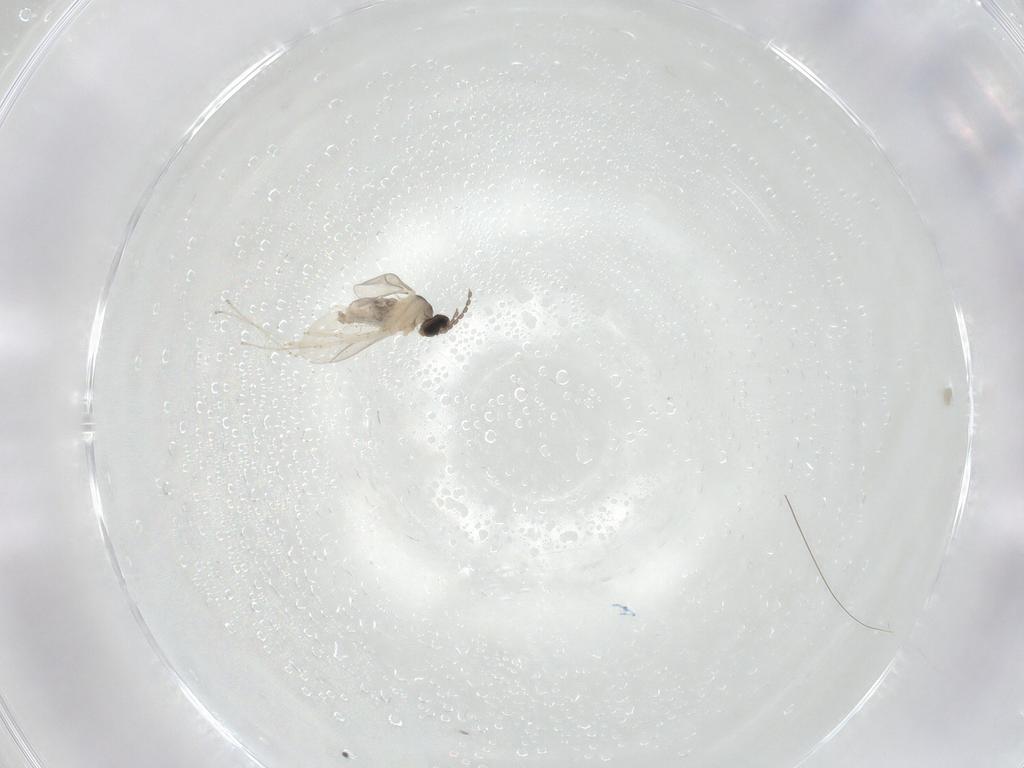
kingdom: Animalia
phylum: Arthropoda
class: Insecta
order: Diptera
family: Cecidomyiidae
